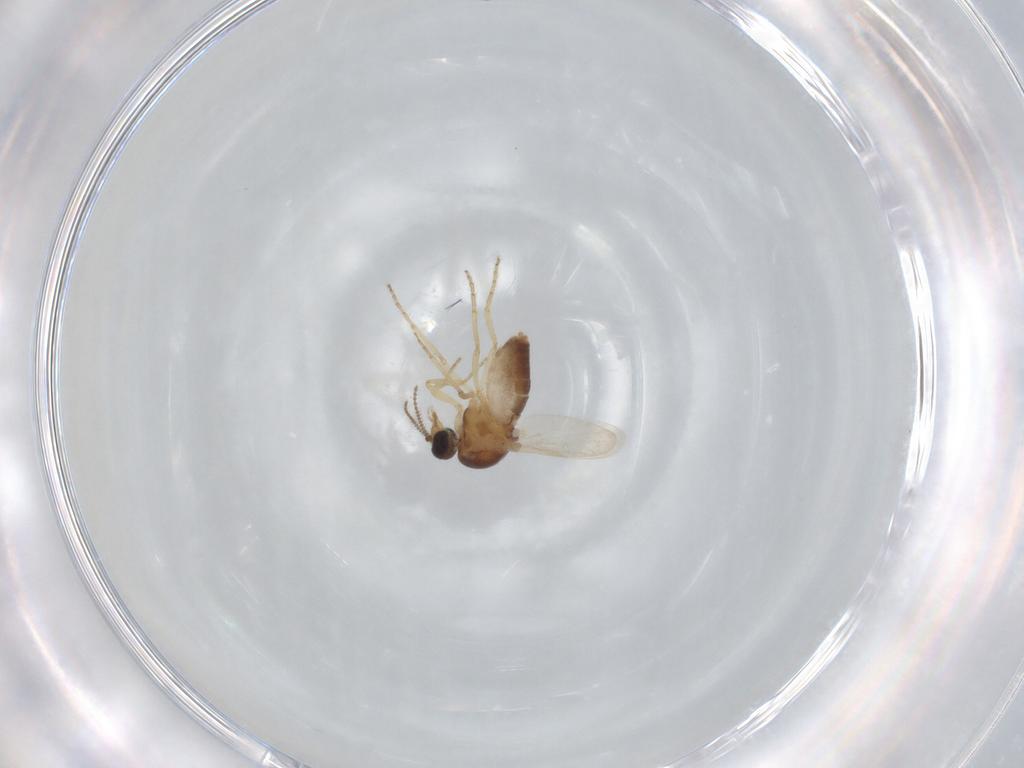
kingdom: Animalia
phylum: Arthropoda
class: Insecta
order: Diptera
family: Ceratopogonidae
